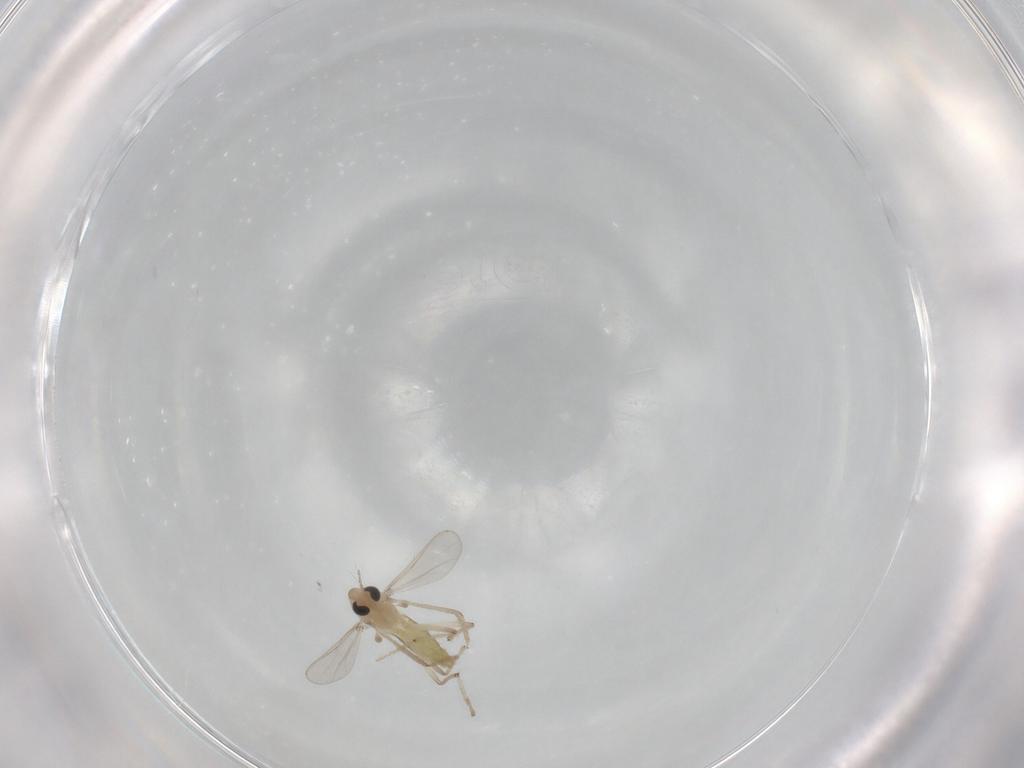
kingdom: Animalia
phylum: Arthropoda
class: Insecta
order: Diptera
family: Chironomidae
